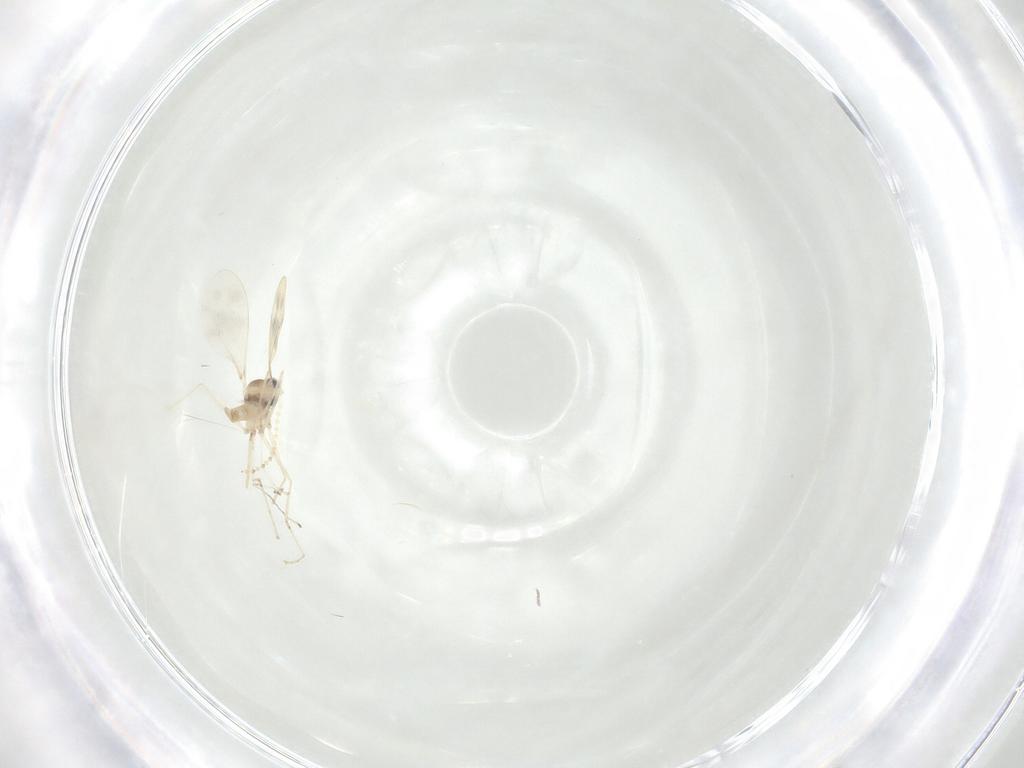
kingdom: Animalia
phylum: Arthropoda
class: Insecta
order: Diptera
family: Cecidomyiidae
